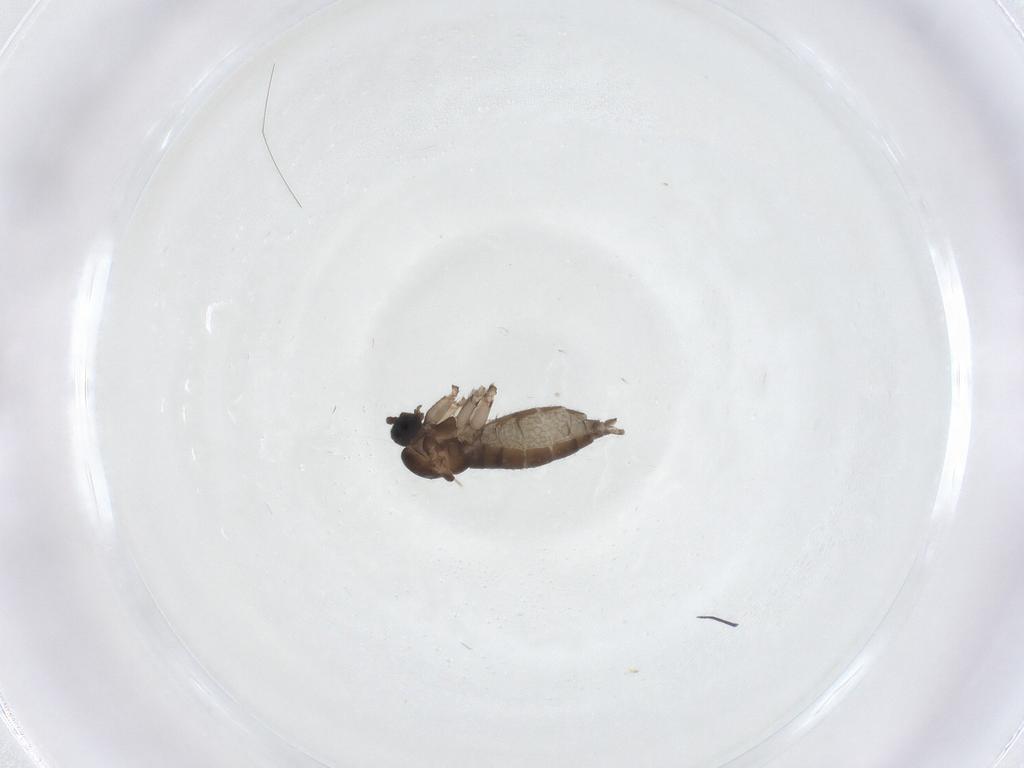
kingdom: Animalia
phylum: Arthropoda
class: Insecta
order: Diptera
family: Sciaridae
